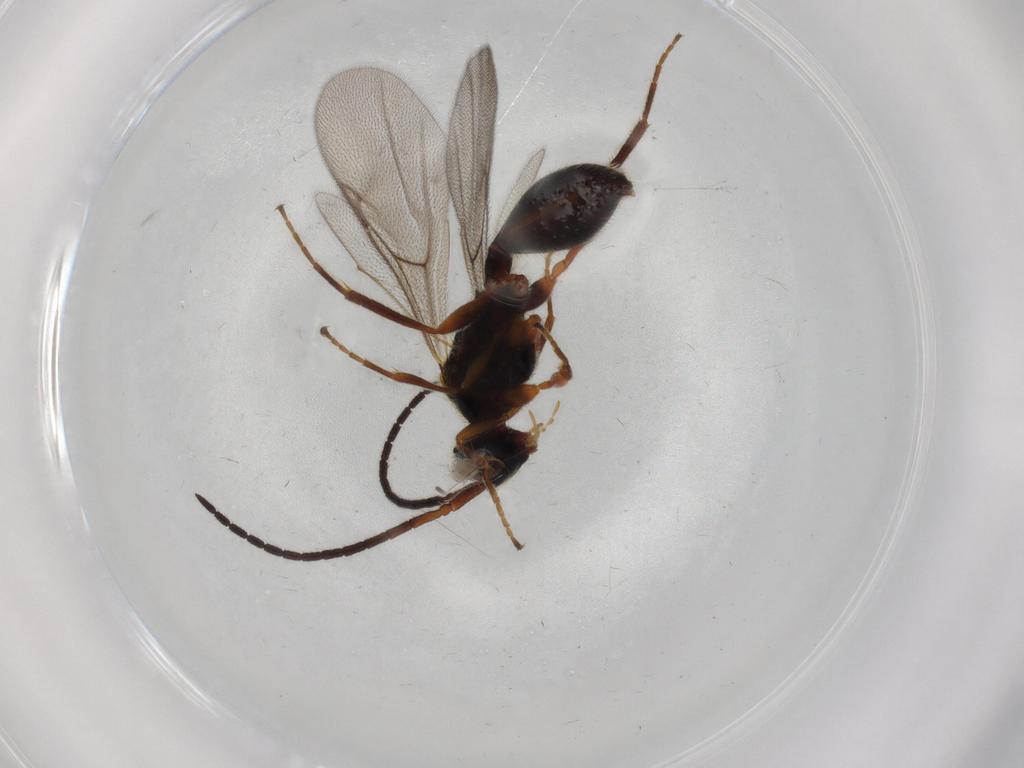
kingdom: Animalia
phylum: Arthropoda
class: Insecta
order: Hymenoptera
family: Diapriidae
